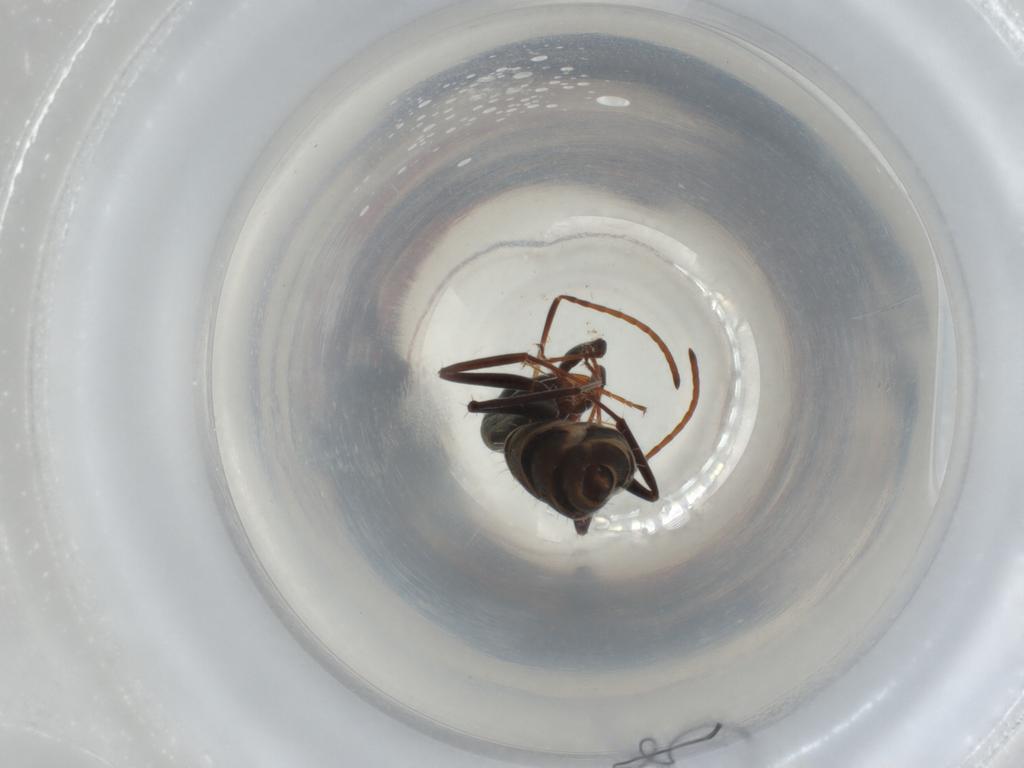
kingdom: Animalia
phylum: Arthropoda
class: Insecta
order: Hymenoptera
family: Formicidae
